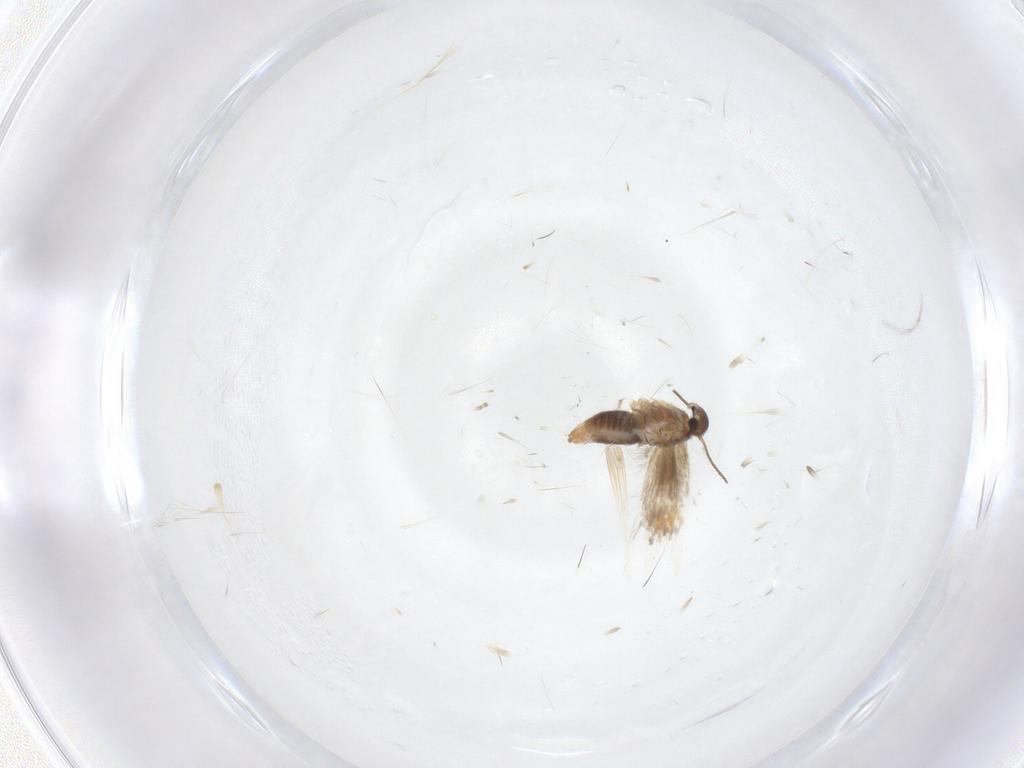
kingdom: Animalia
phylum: Arthropoda
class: Insecta
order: Lepidoptera
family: Heliozelidae
